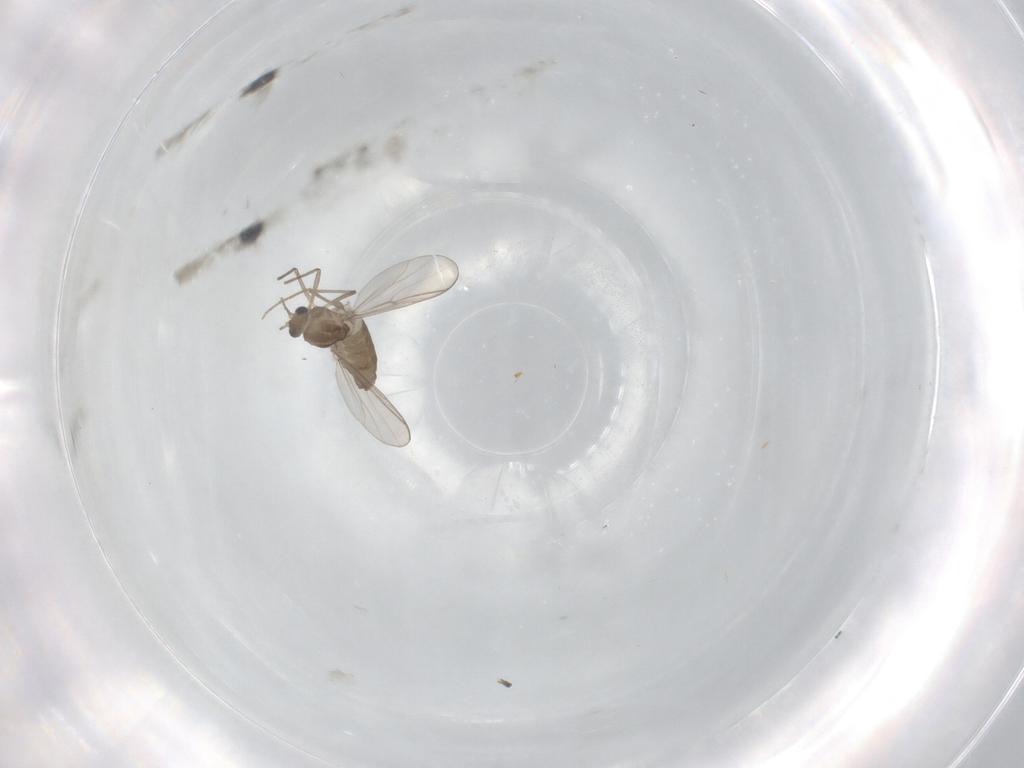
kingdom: Animalia
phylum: Arthropoda
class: Insecta
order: Diptera
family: Chironomidae
